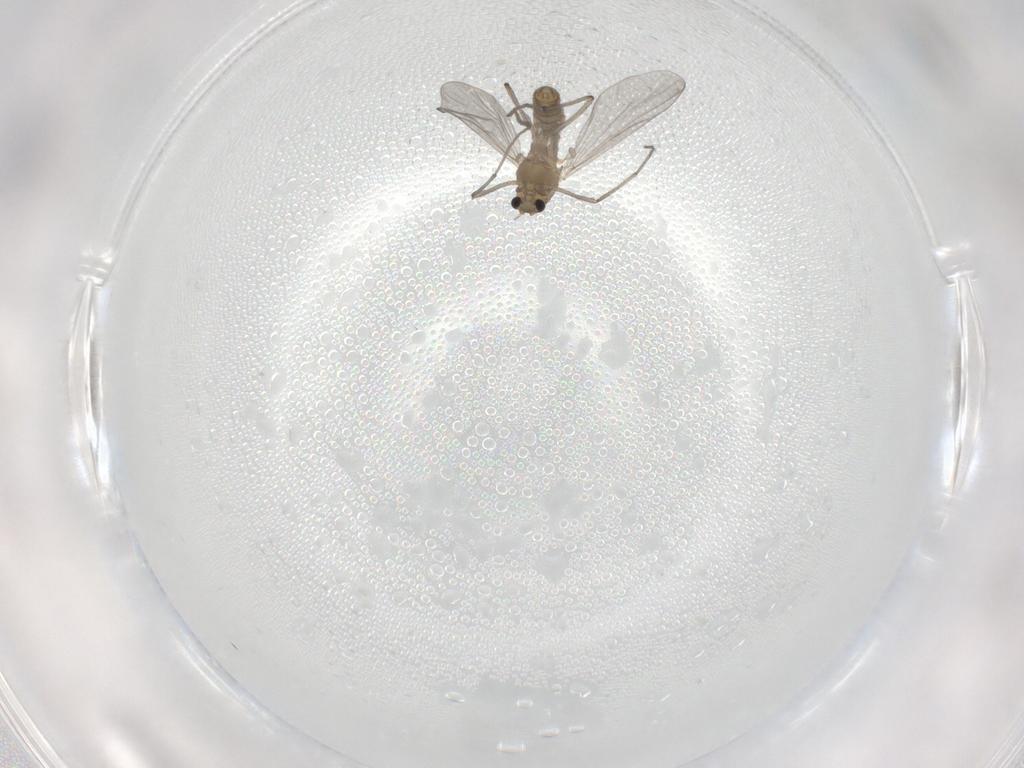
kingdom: Animalia
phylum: Arthropoda
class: Insecta
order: Diptera
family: Chironomidae
